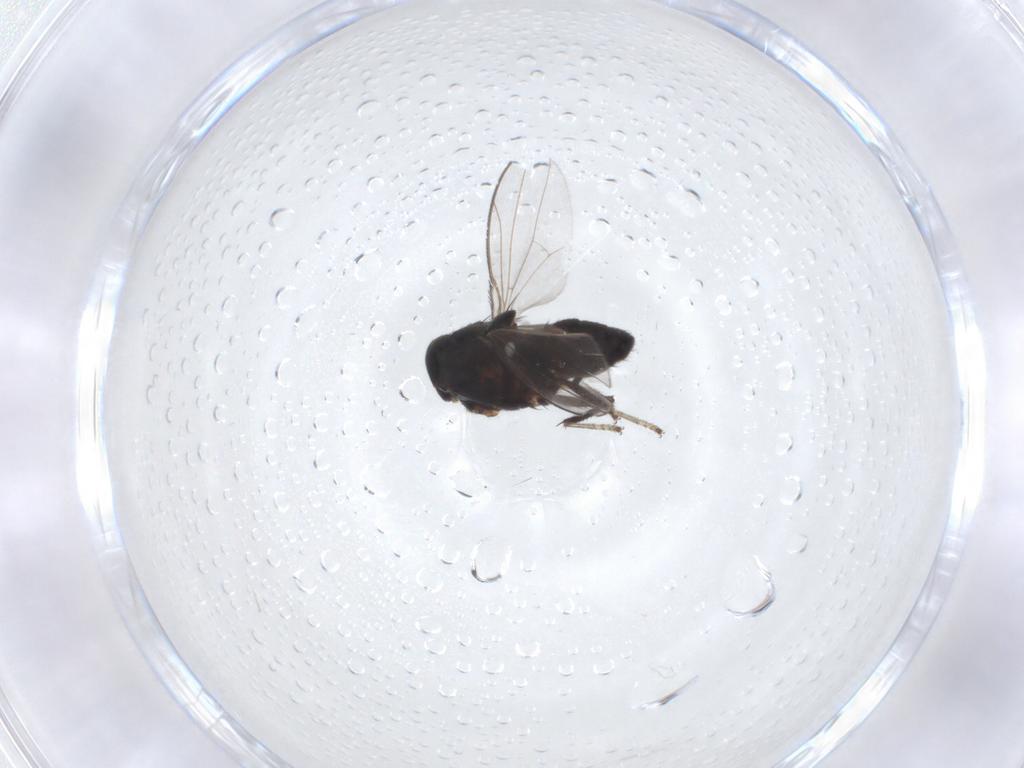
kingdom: Animalia
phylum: Arthropoda
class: Insecta
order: Diptera
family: Ephydridae
